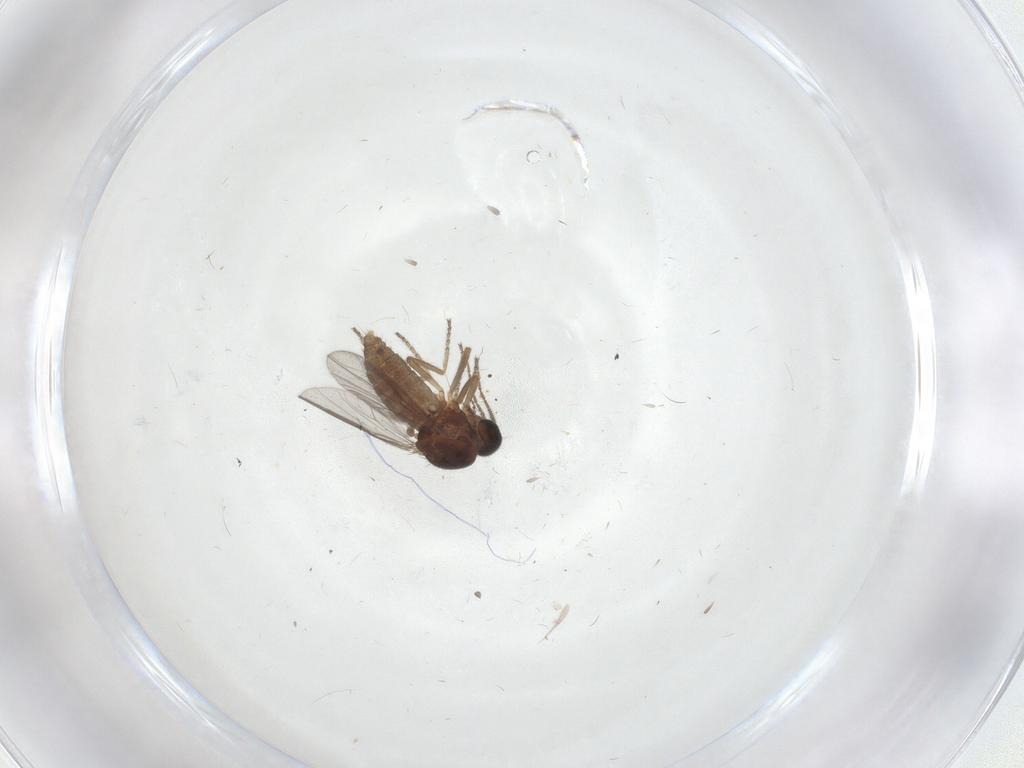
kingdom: Animalia
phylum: Arthropoda
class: Insecta
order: Diptera
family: Ceratopogonidae
